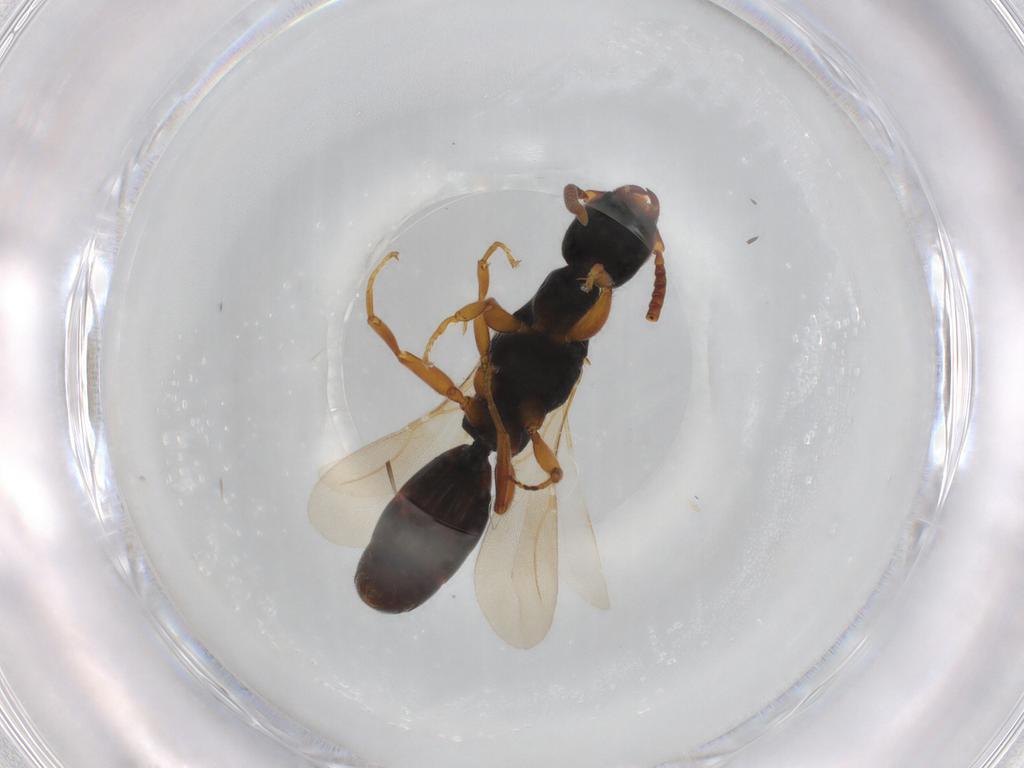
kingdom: Animalia
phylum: Arthropoda
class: Insecta
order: Hymenoptera
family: Bethylidae
